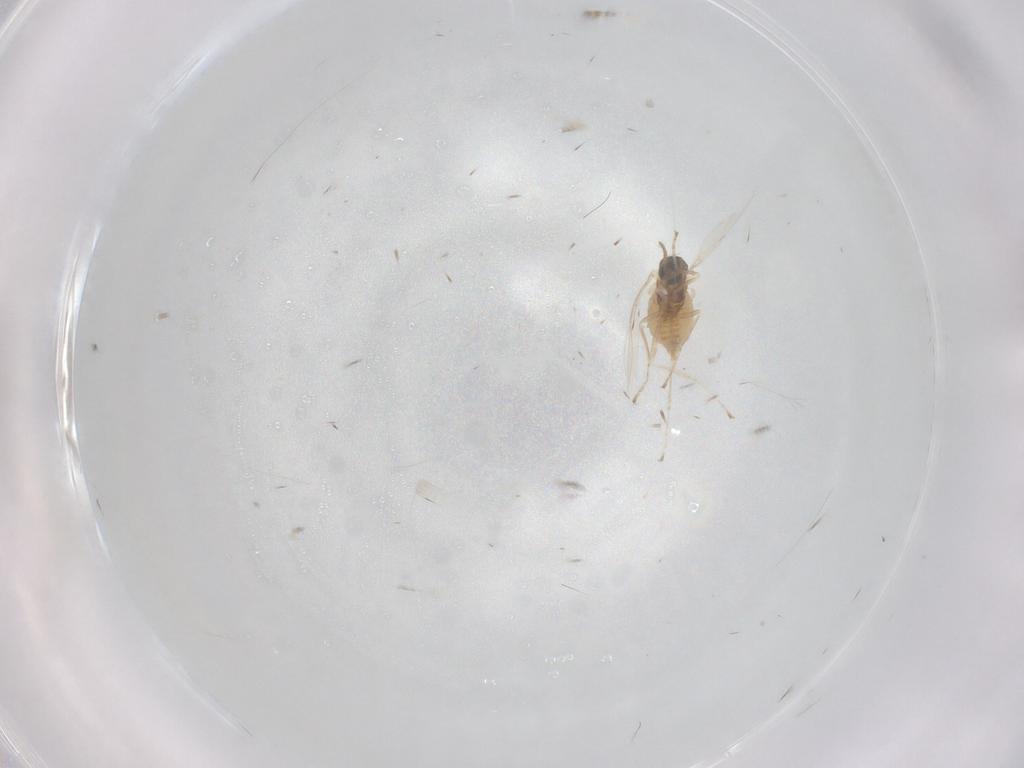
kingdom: Animalia
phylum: Arthropoda
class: Insecta
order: Diptera
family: Cecidomyiidae
